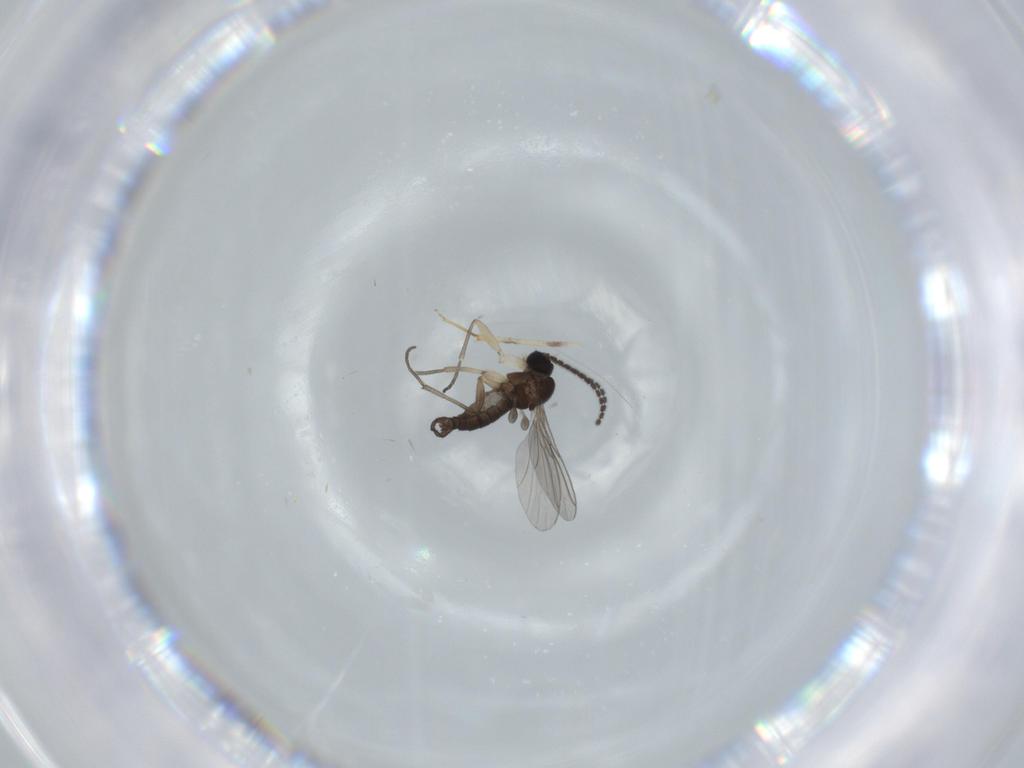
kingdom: Animalia
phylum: Arthropoda
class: Insecta
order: Diptera
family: Sciaridae
